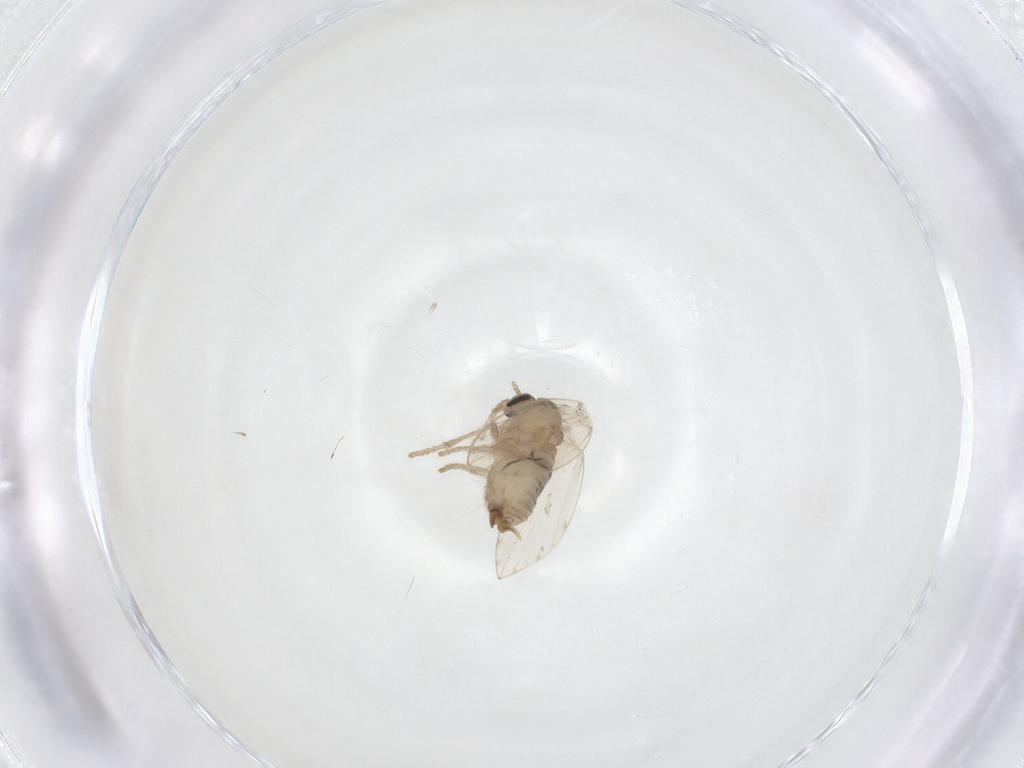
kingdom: Animalia
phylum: Arthropoda
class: Insecta
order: Diptera
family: Psychodidae
